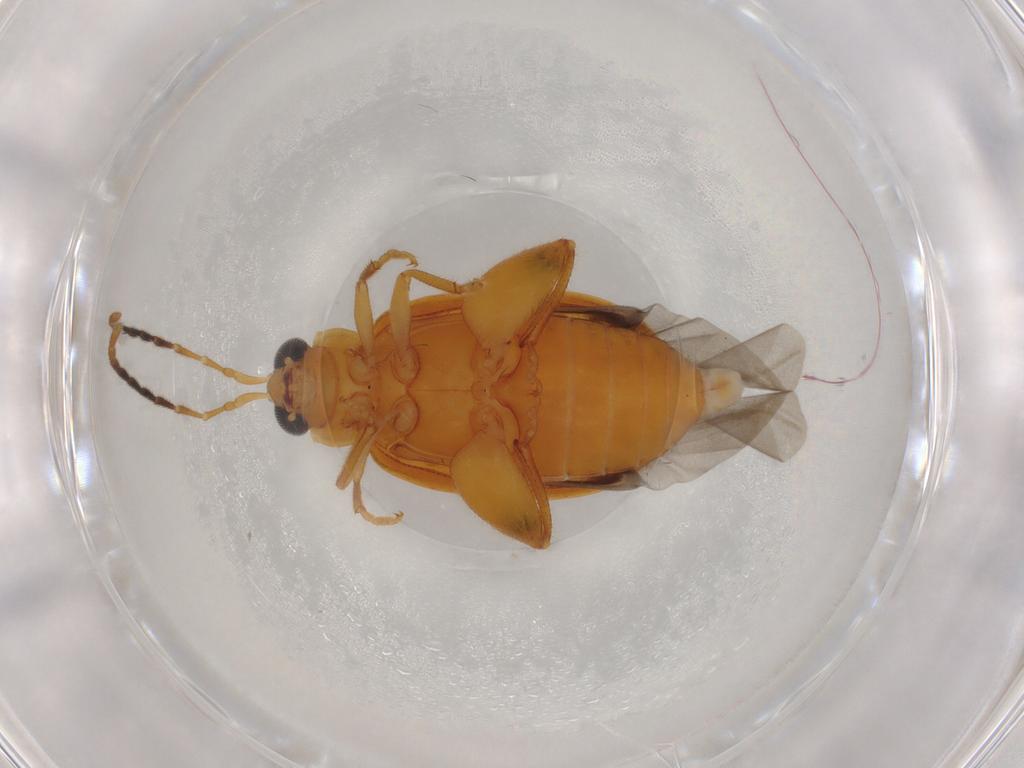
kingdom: Animalia
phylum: Arthropoda
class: Insecta
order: Coleoptera
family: Chrysomelidae
